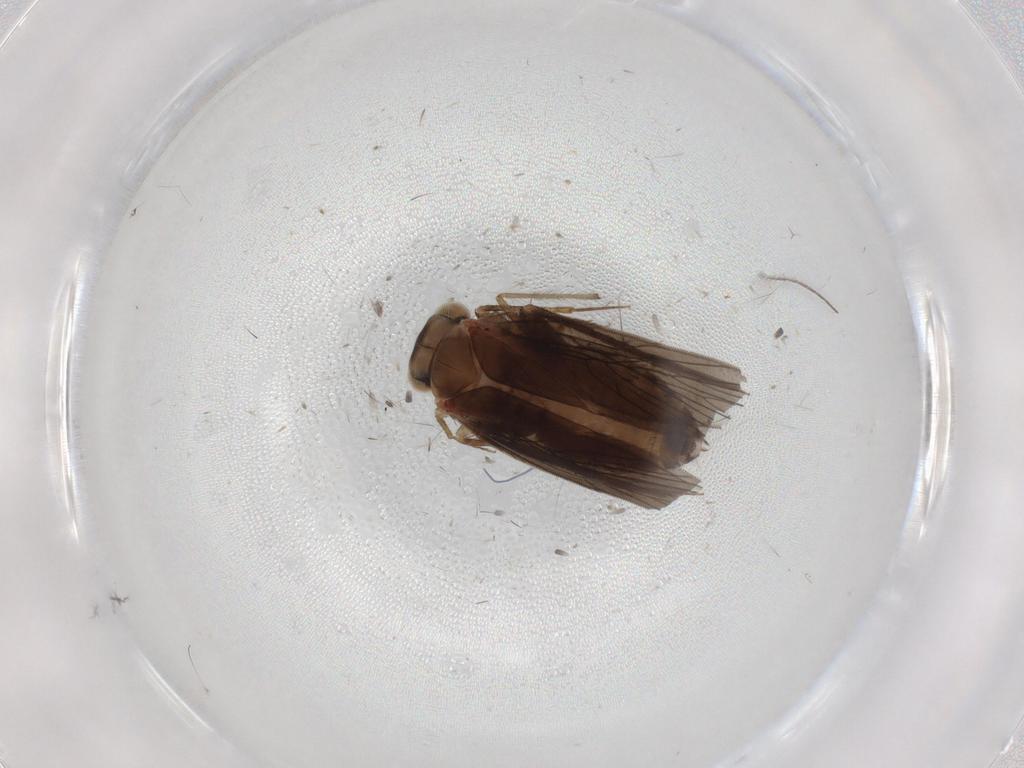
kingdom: Animalia
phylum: Arthropoda
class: Insecta
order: Psocodea
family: Lepidopsocidae
